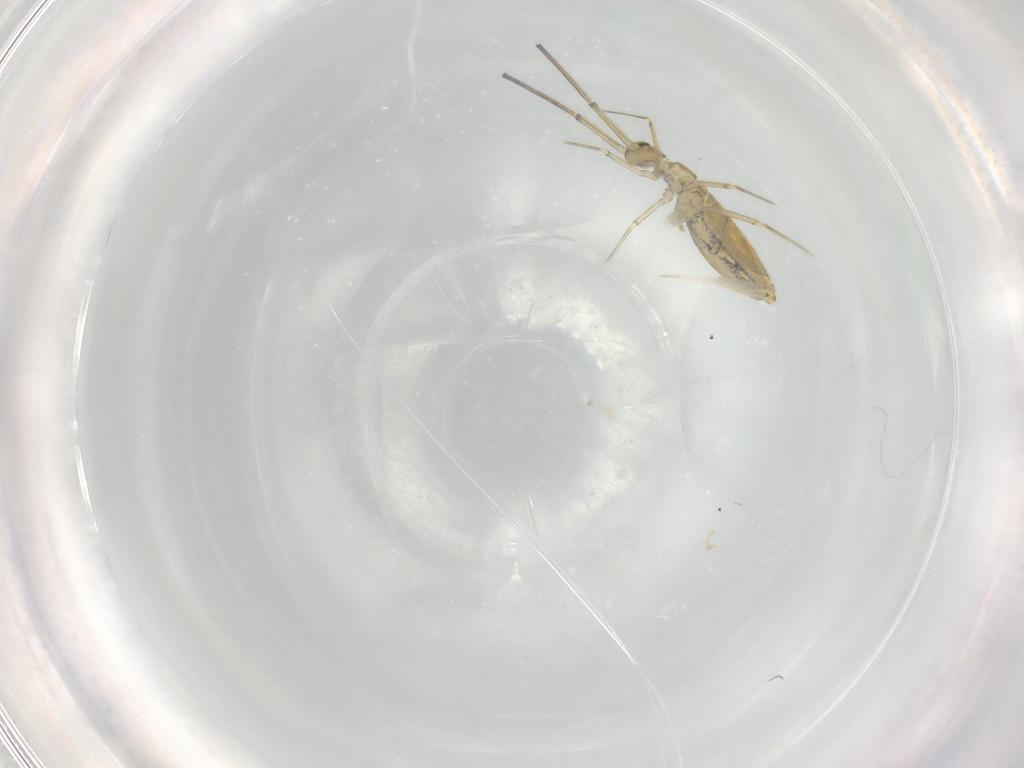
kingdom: Animalia
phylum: Arthropoda
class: Collembola
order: Entomobryomorpha
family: Paronellidae
